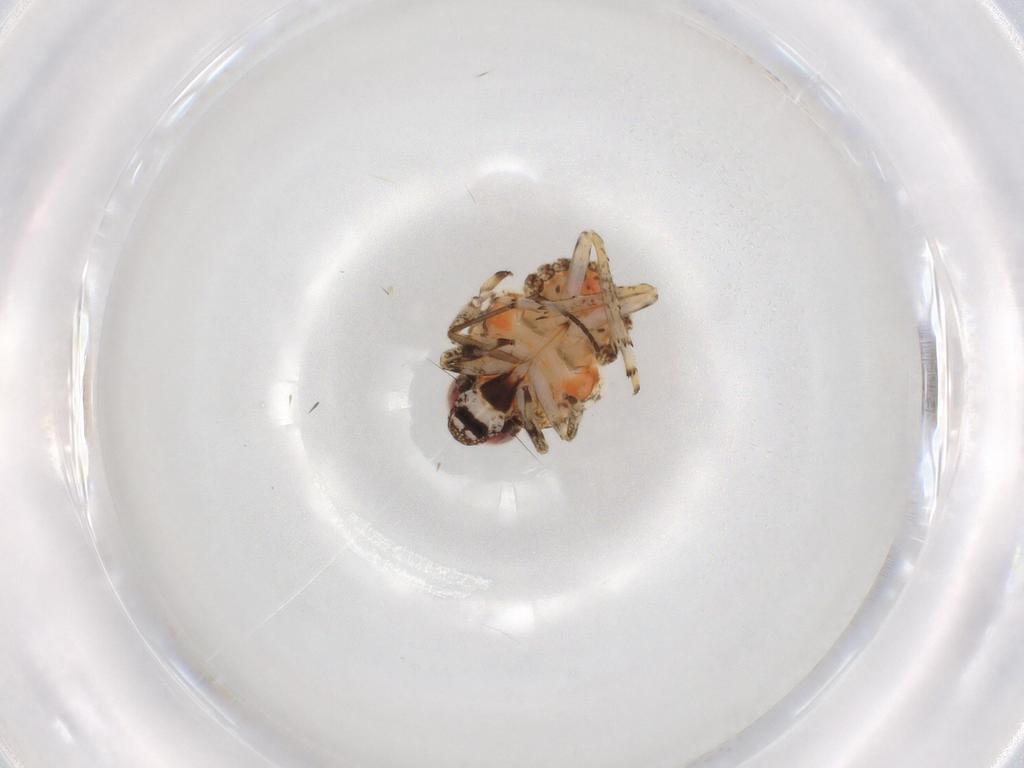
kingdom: Animalia
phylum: Arthropoda
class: Insecta
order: Hemiptera
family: Issidae
